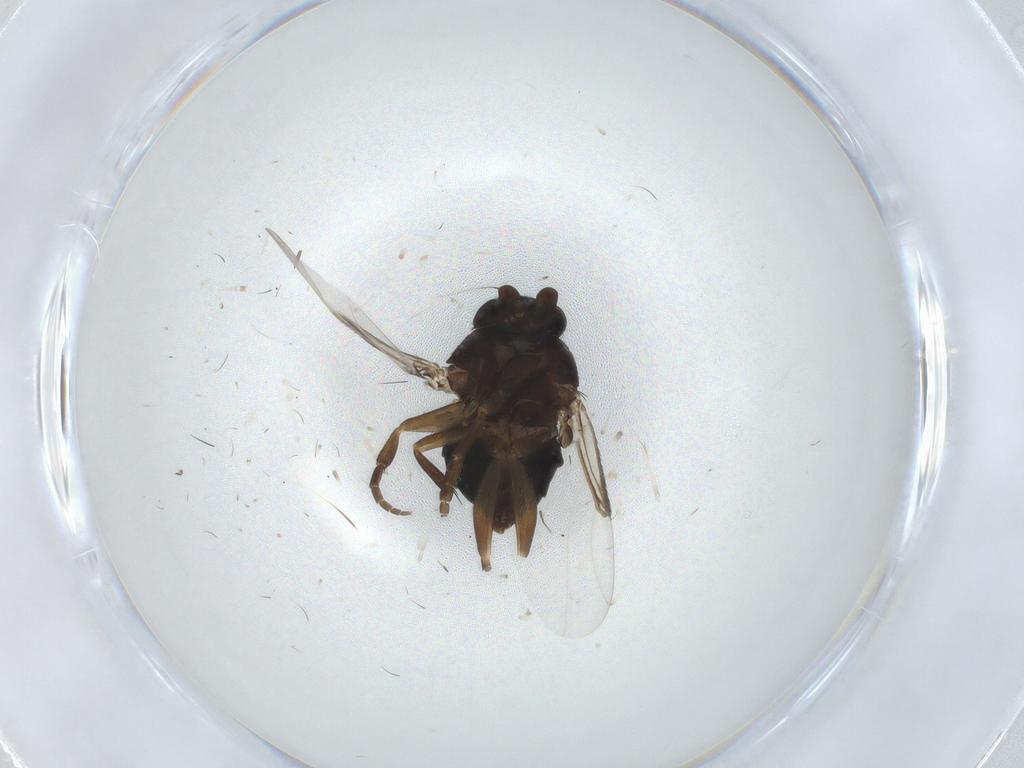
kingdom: Animalia
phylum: Arthropoda
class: Insecta
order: Diptera
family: Phoridae
